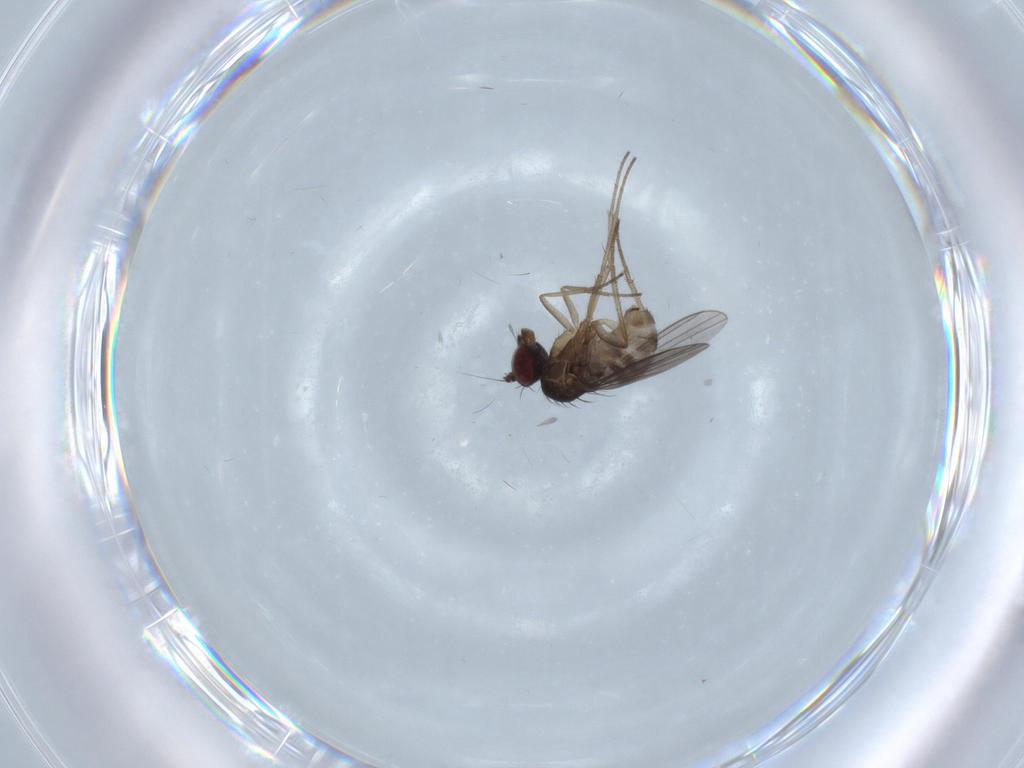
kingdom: Animalia
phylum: Arthropoda
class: Insecta
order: Diptera
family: Dolichopodidae
